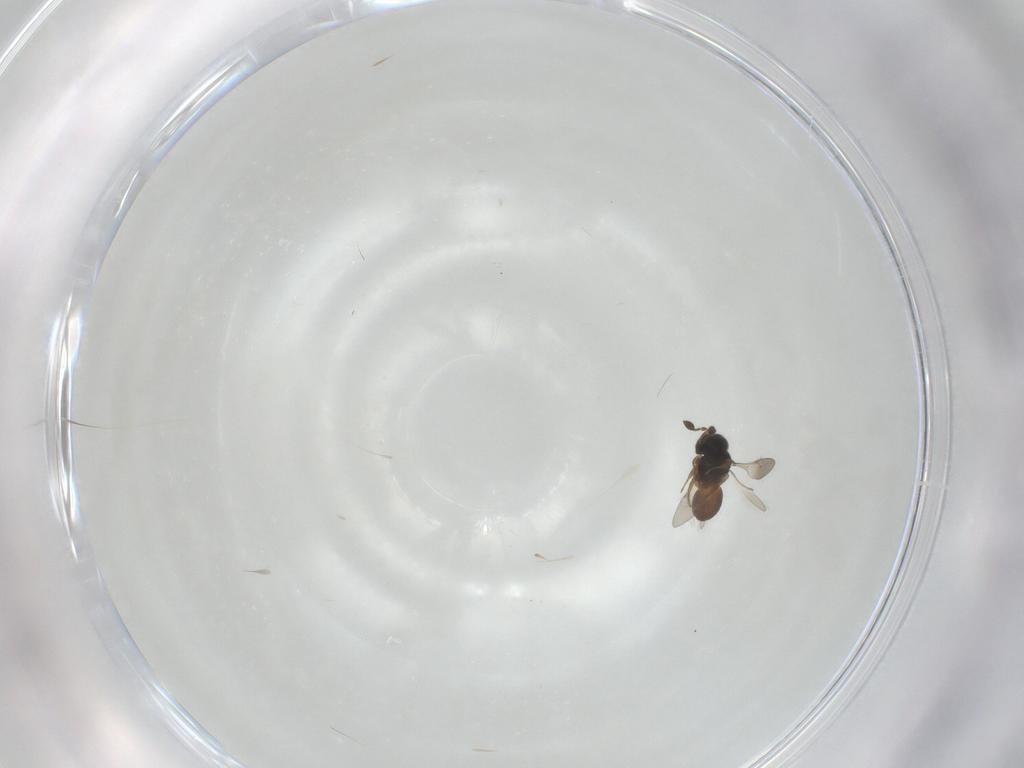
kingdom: Animalia
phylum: Arthropoda
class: Insecta
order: Hymenoptera
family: Scelionidae
